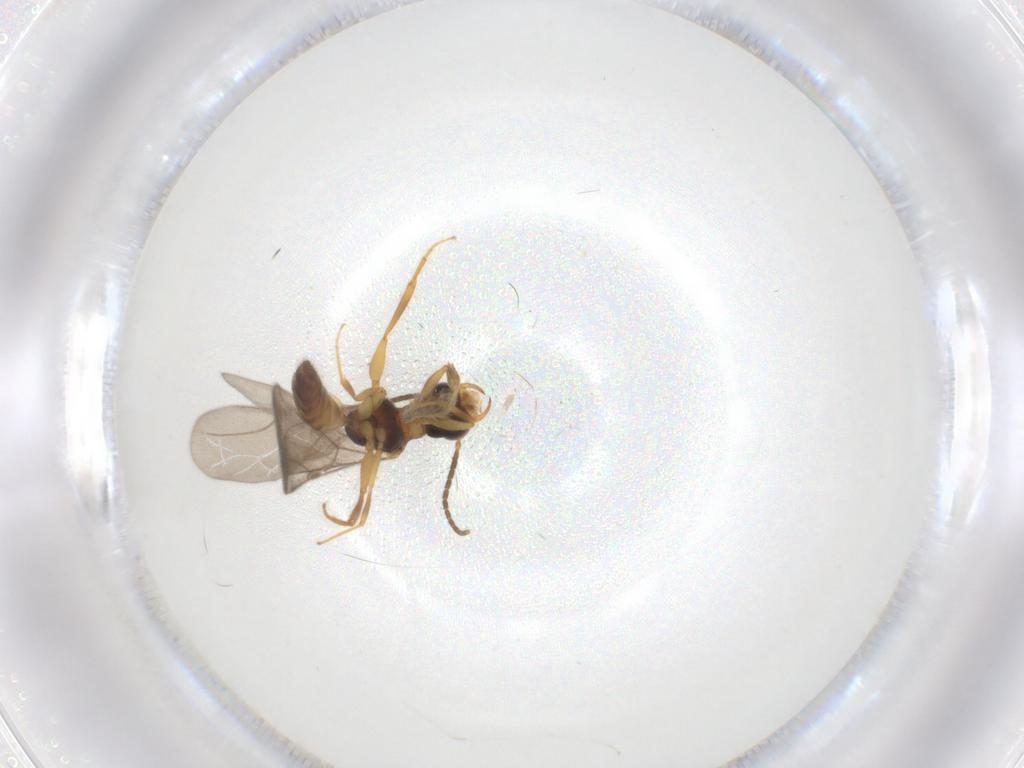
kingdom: Animalia
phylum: Arthropoda
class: Insecta
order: Hymenoptera
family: Bethylidae
